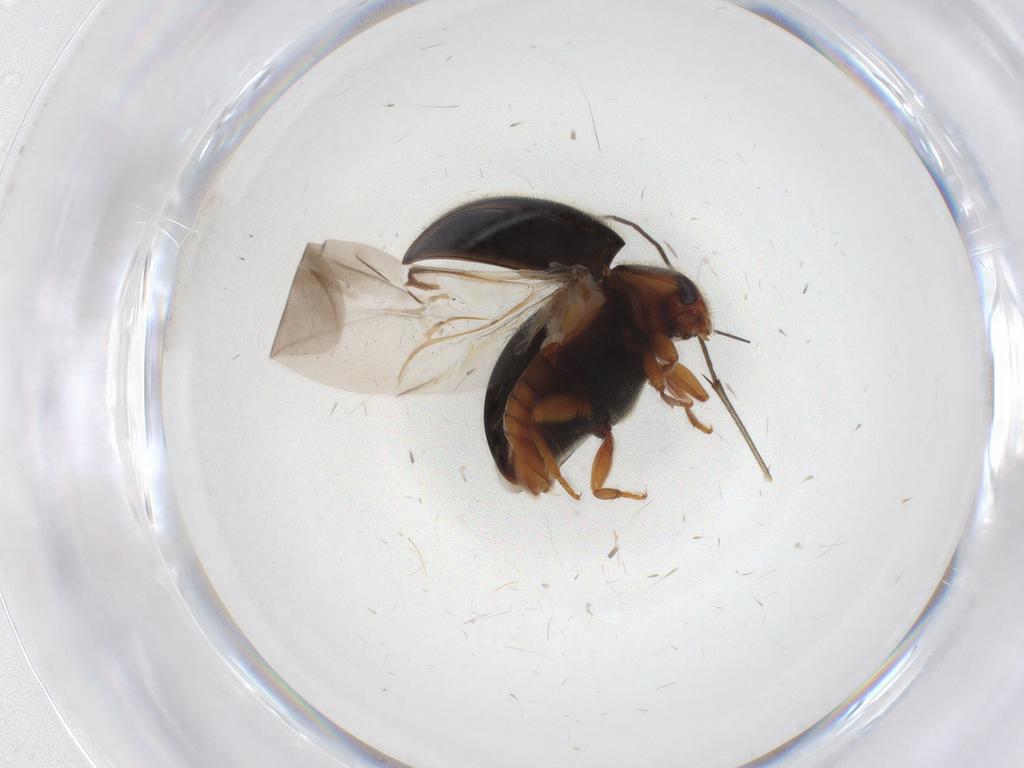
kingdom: Animalia
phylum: Arthropoda
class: Insecta
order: Coleoptera
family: Coccinellidae
